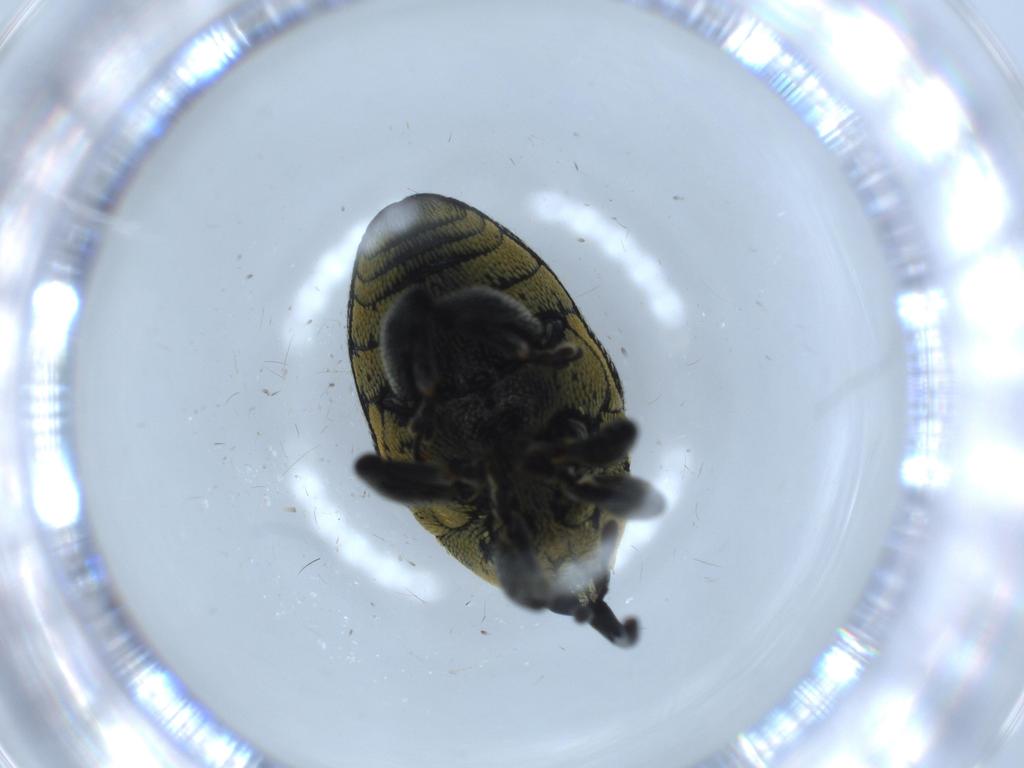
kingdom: Animalia
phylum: Arthropoda
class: Insecta
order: Coleoptera
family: Curculionidae
